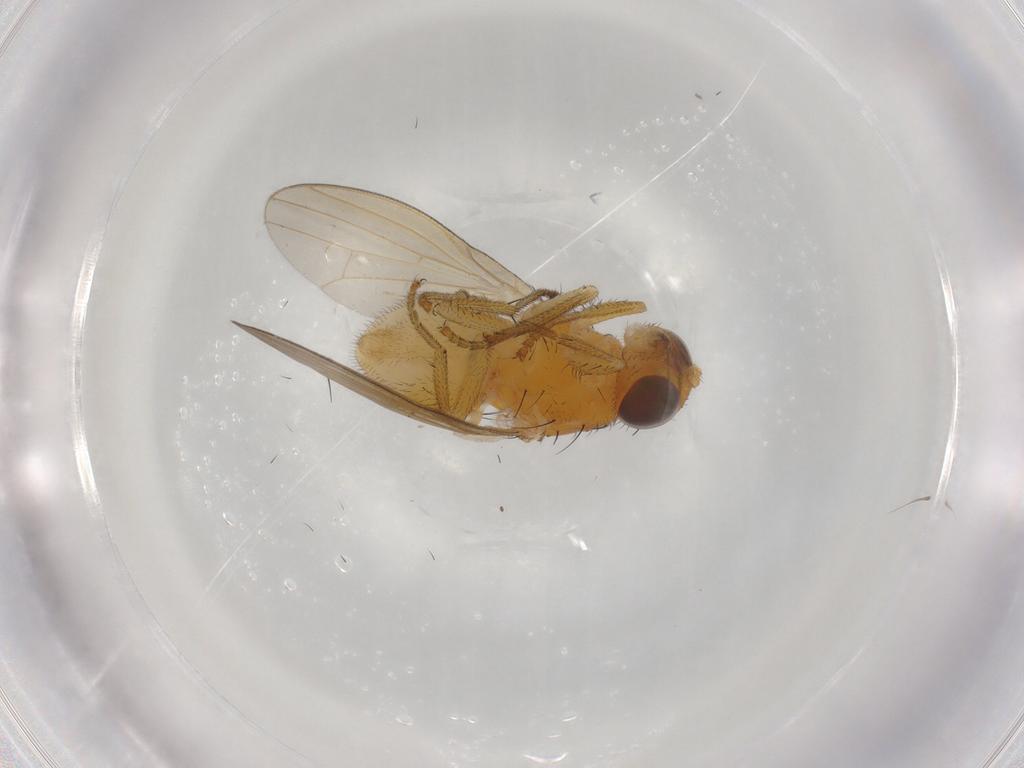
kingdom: Animalia
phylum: Arthropoda
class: Insecta
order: Diptera
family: Lauxaniidae
